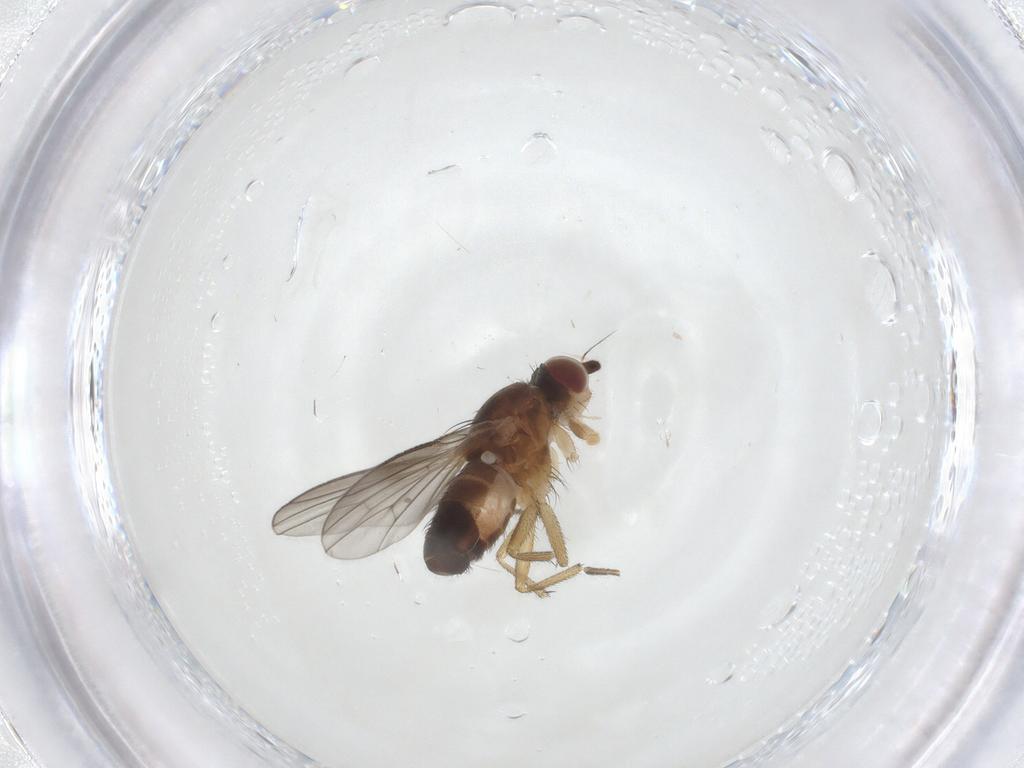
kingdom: Animalia
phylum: Arthropoda
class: Insecta
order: Diptera
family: Heleomyzidae
